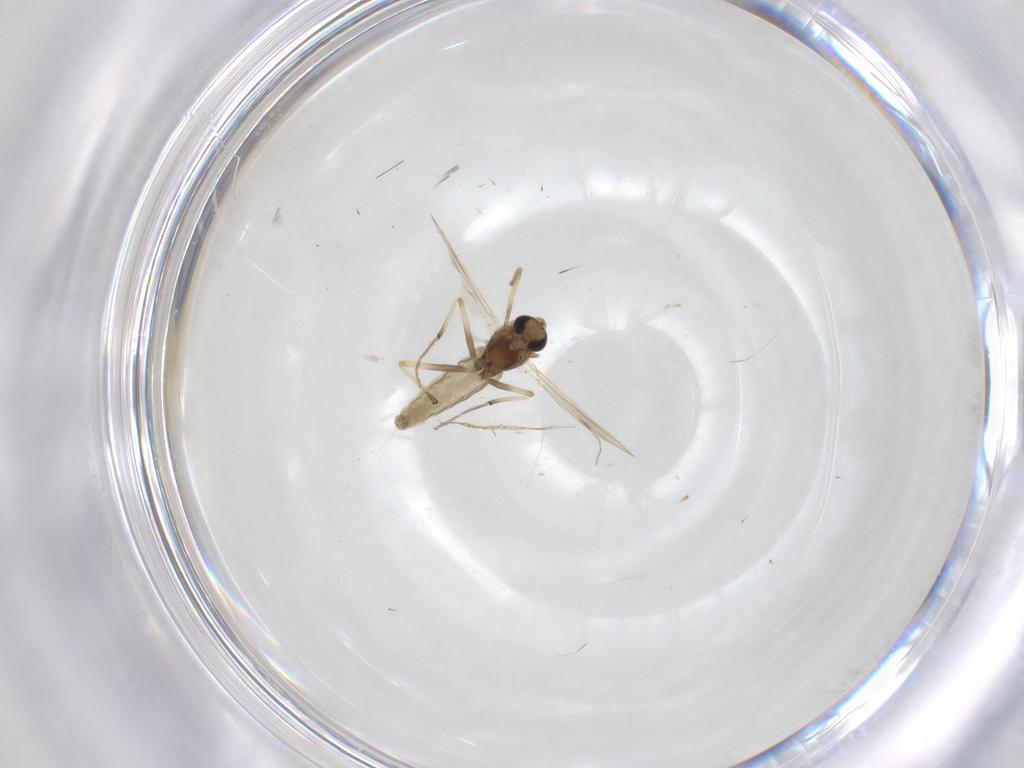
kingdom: Animalia
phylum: Arthropoda
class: Insecta
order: Diptera
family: Chironomidae
